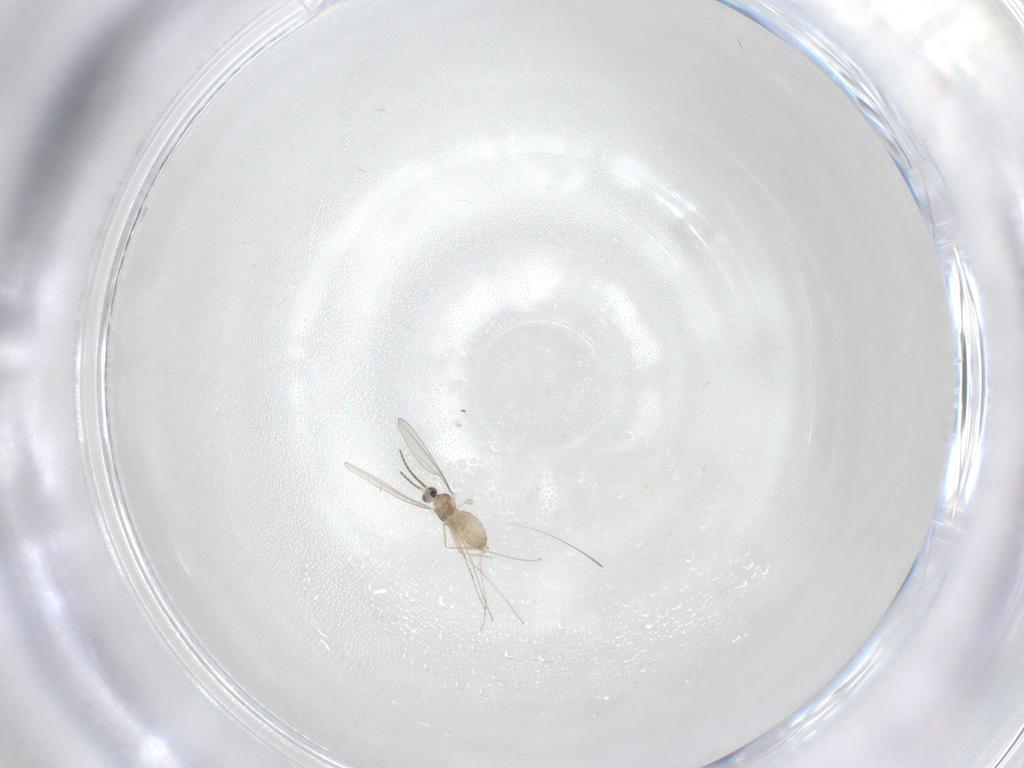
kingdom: Animalia
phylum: Arthropoda
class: Insecta
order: Diptera
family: Cecidomyiidae
